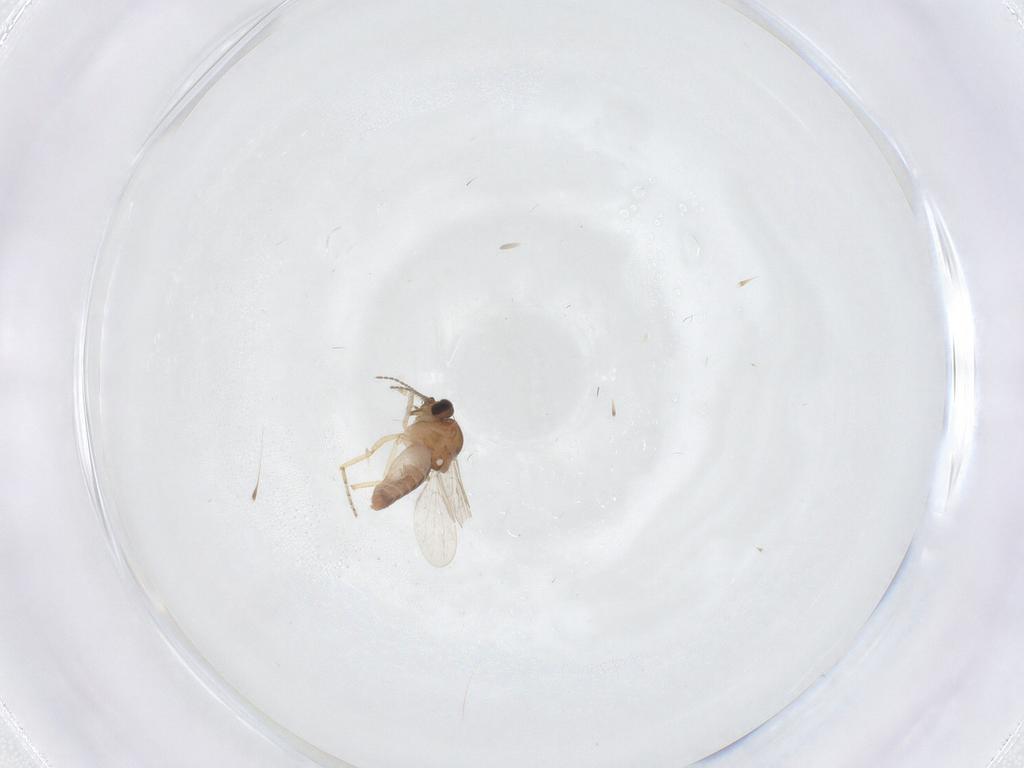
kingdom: Animalia
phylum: Arthropoda
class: Insecta
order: Diptera
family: Ceratopogonidae
